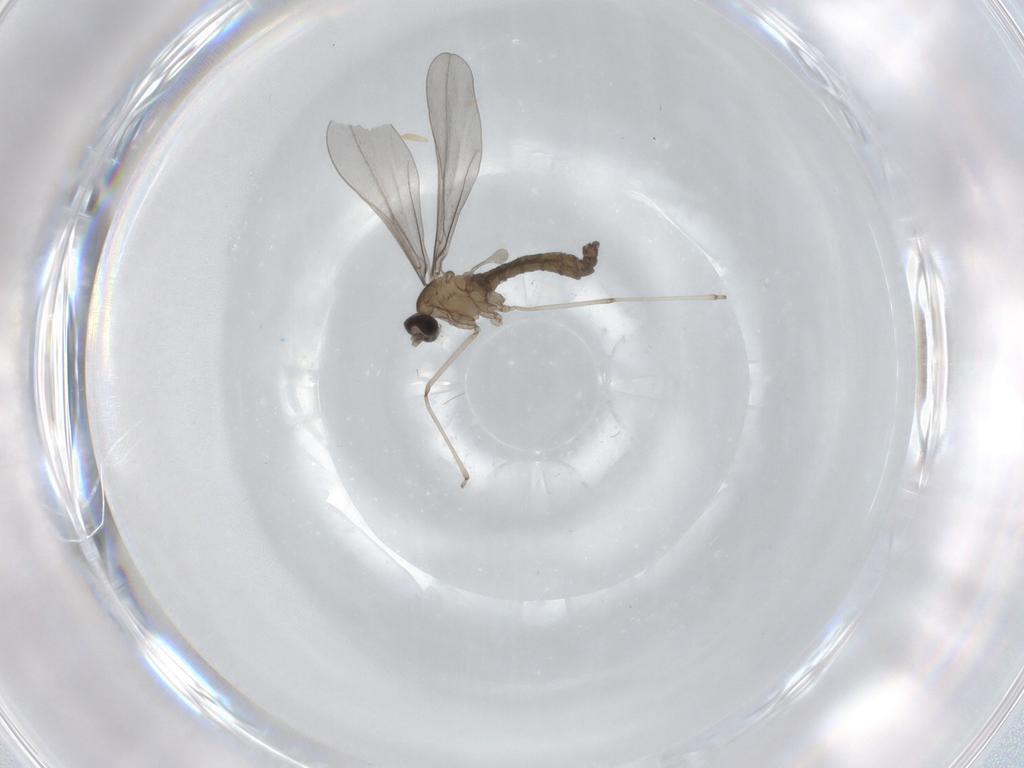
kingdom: Animalia
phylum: Arthropoda
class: Insecta
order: Diptera
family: Cecidomyiidae
